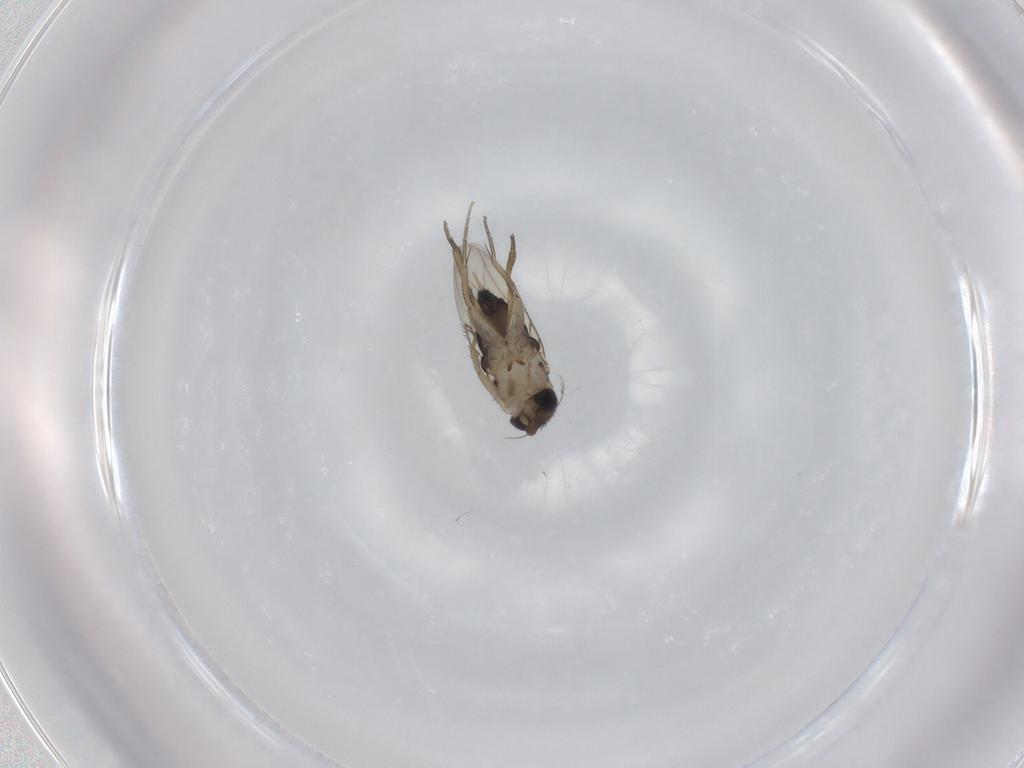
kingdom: Animalia
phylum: Arthropoda
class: Insecta
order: Diptera
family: Phoridae
